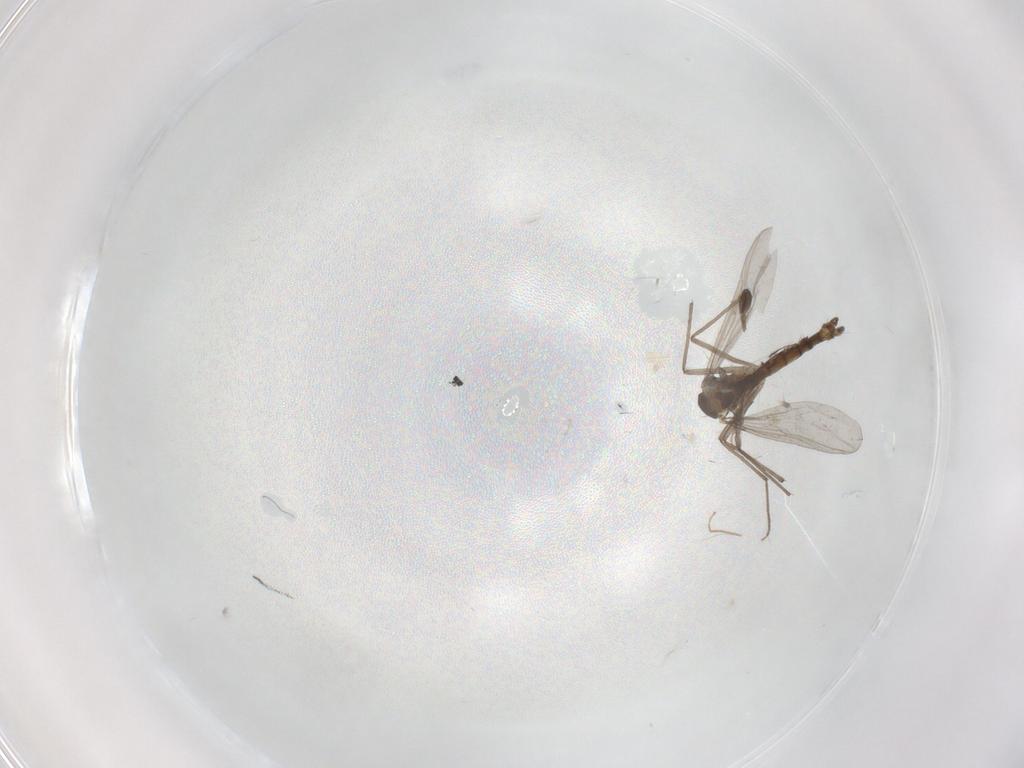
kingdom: Animalia
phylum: Arthropoda
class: Insecta
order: Diptera
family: Chironomidae
